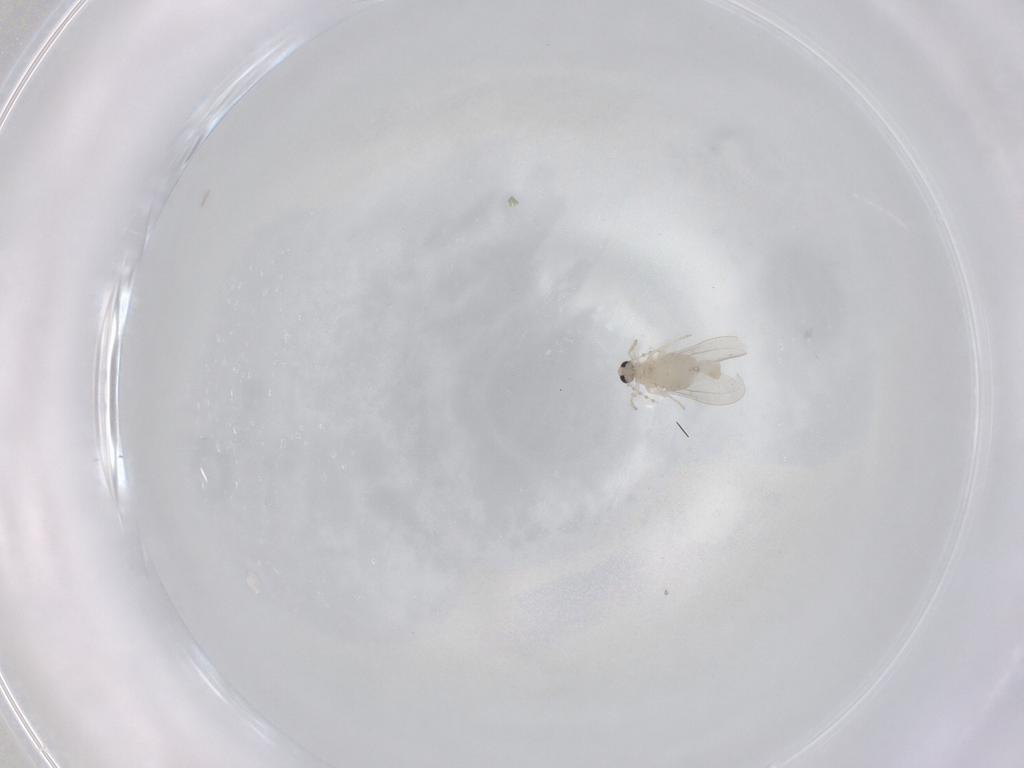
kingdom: Animalia
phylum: Arthropoda
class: Insecta
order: Diptera
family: Cecidomyiidae
